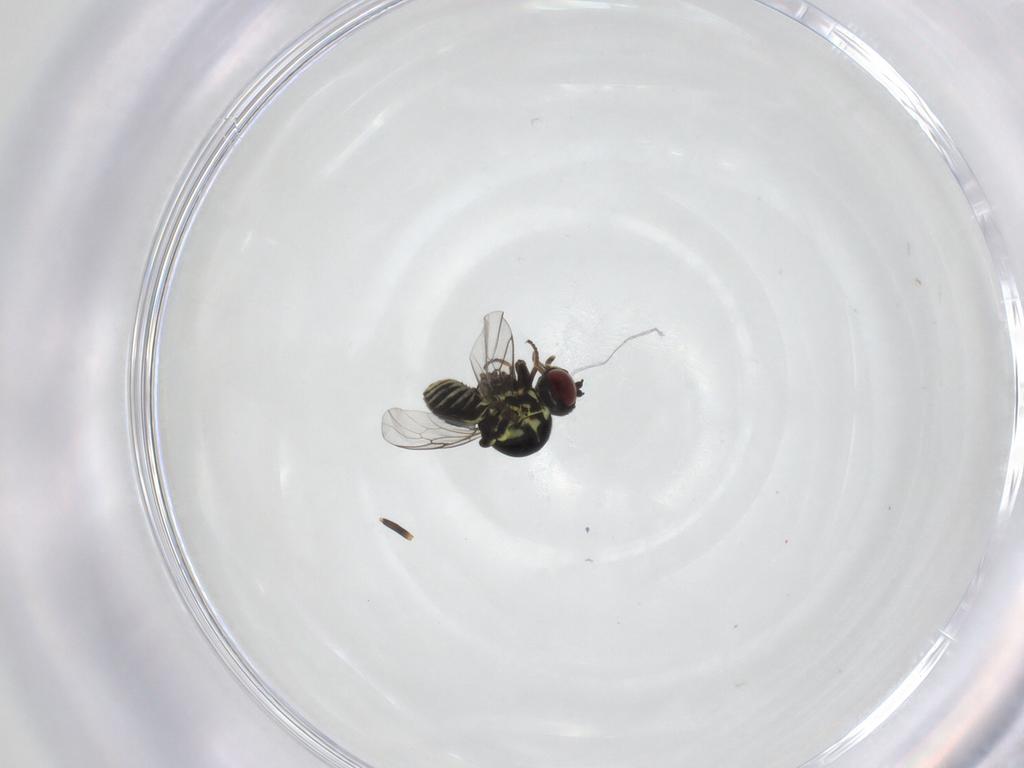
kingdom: Animalia
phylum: Arthropoda
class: Insecta
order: Diptera
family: Mythicomyiidae
